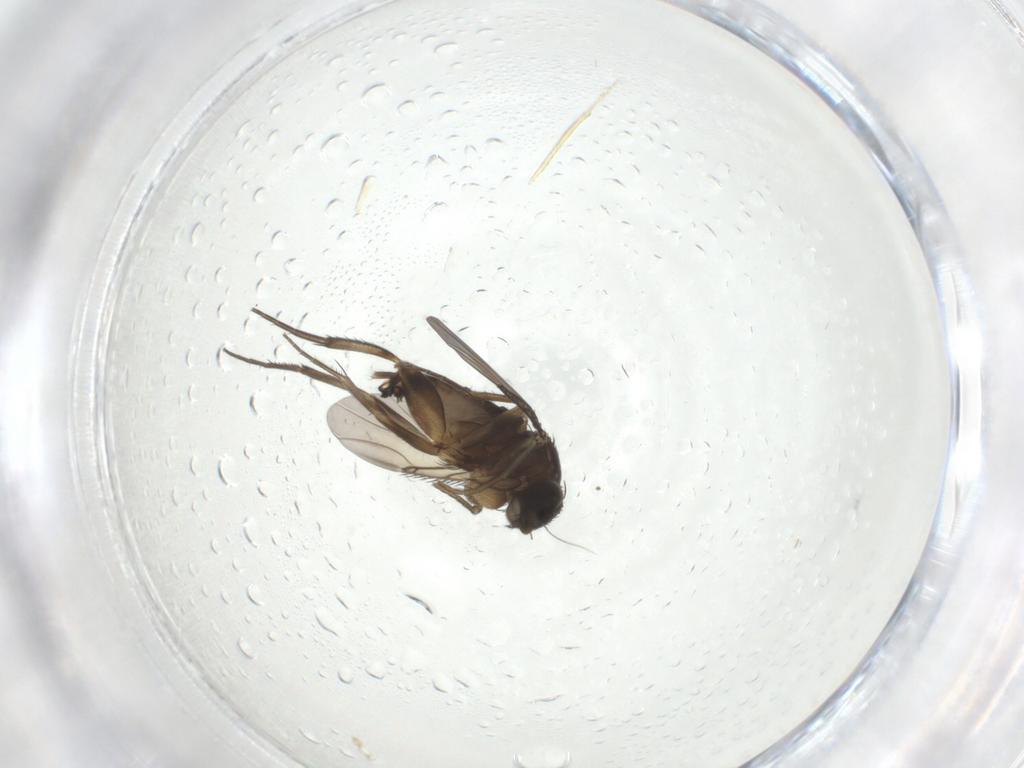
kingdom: Animalia
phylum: Arthropoda
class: Insecta
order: Diptera
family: Phoridae
